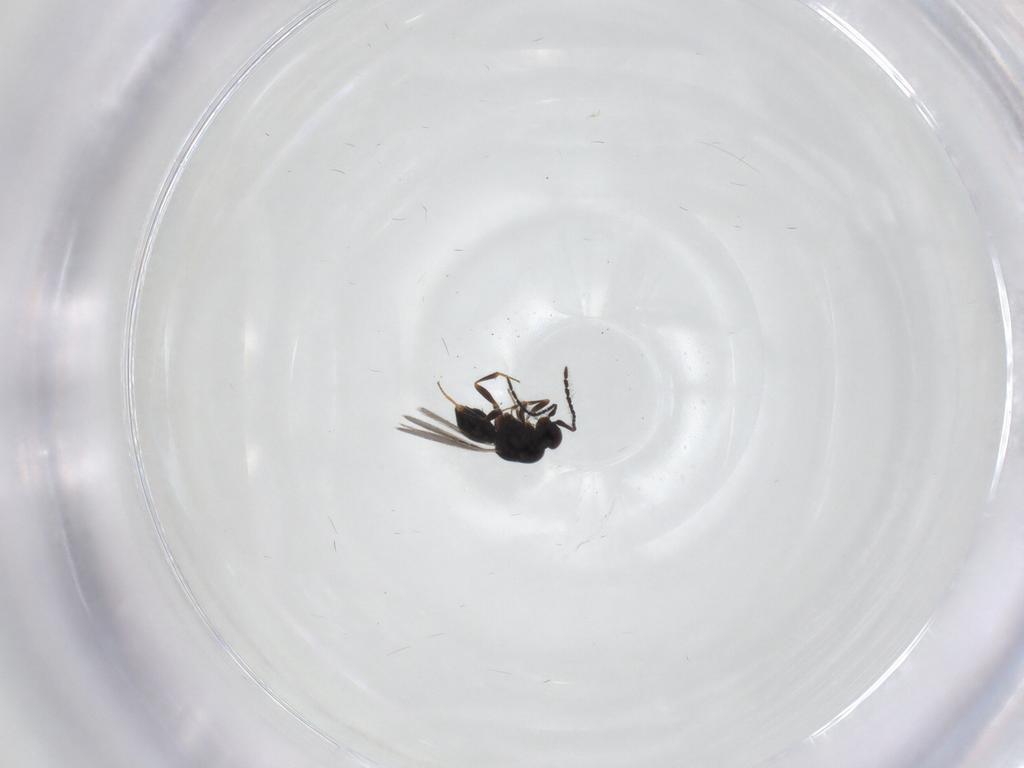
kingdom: Animalia
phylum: Arthropoda
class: Insecta
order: Hymenoptera
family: Ceraphronidae
